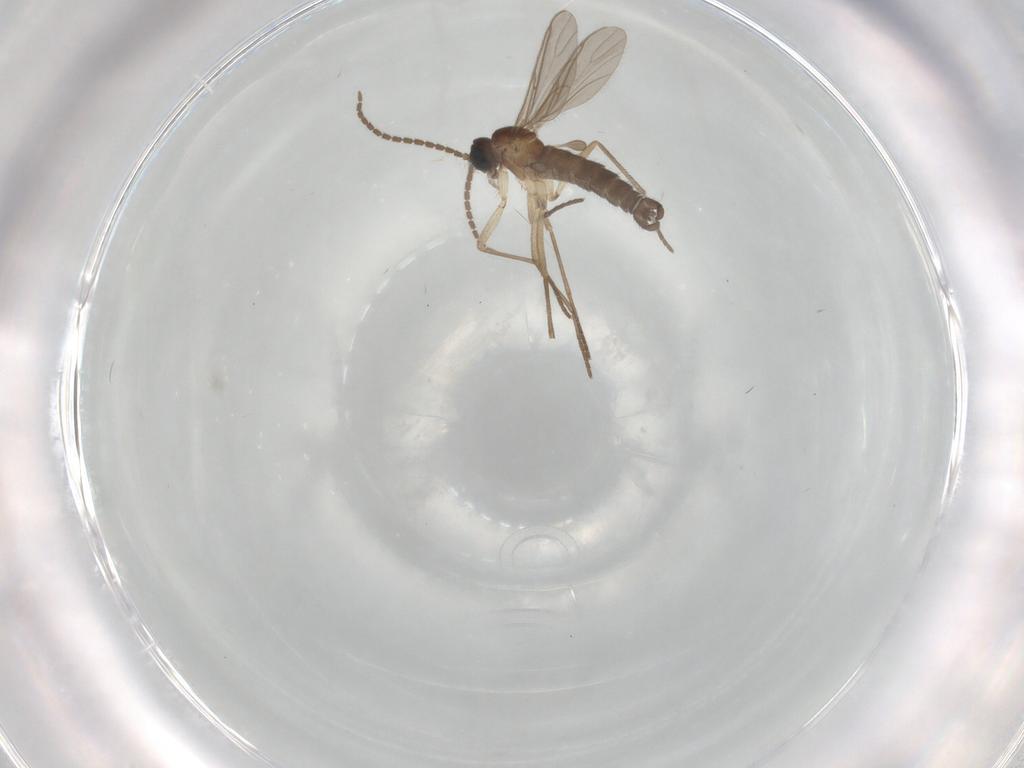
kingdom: Animalia
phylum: Arthropoda
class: Insecta
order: Diptera
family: Sciaridae
